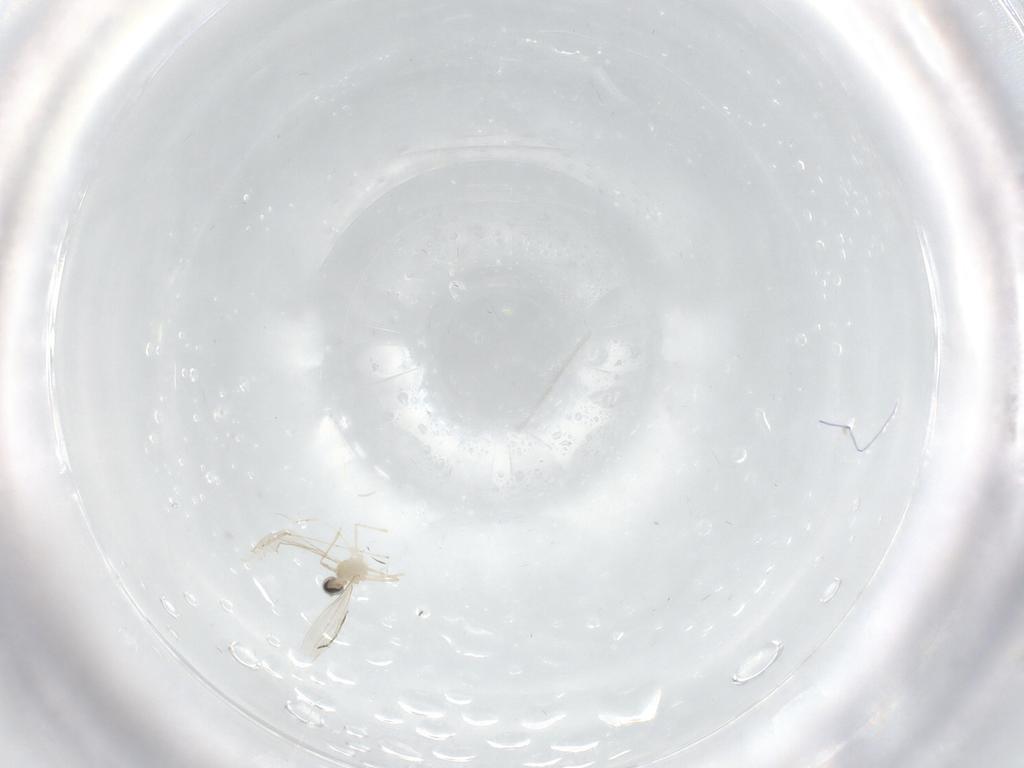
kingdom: Animalia
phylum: Arthropoda
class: Insecta
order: Diptera
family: Cecidomyiidae
